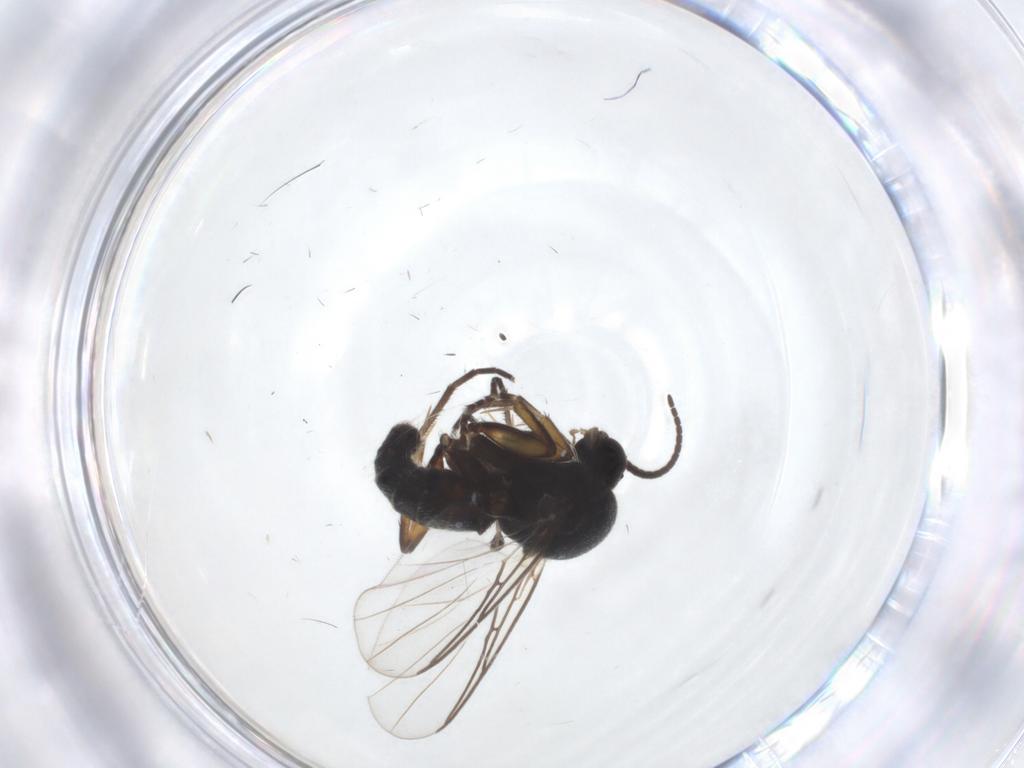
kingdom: Animalia
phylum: Arthropoda
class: Insecta
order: Diptera
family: Mycetophilidae
